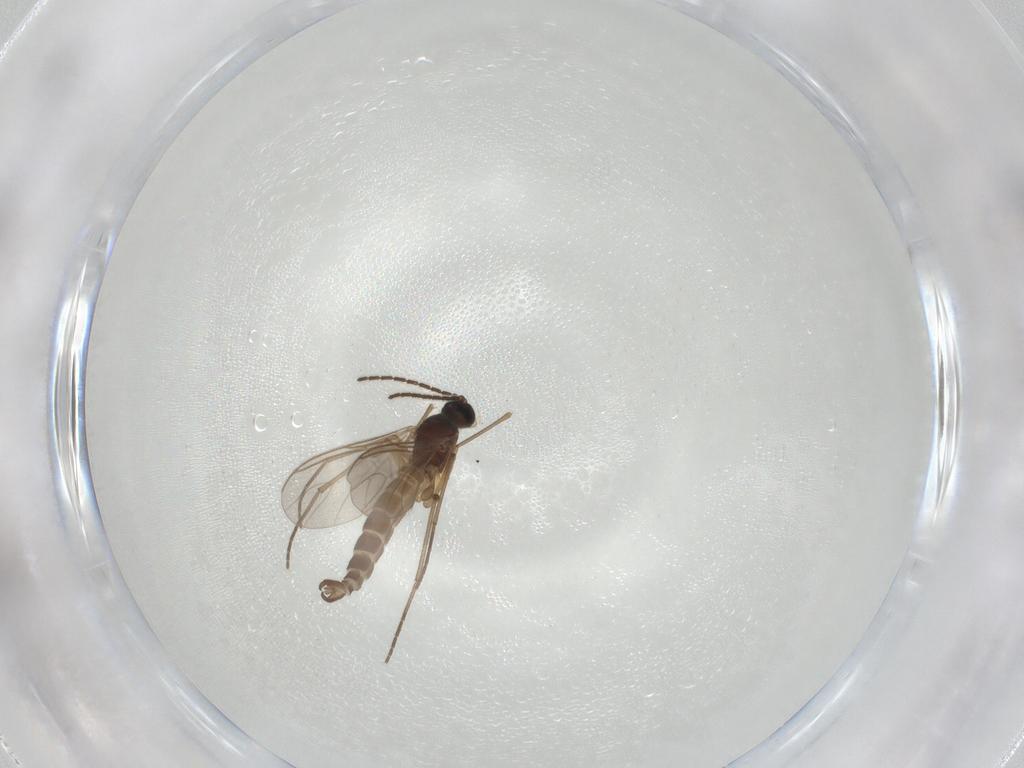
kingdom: Animalia
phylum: Arthropoda
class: Insecta
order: Diptera
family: Sciaridae
